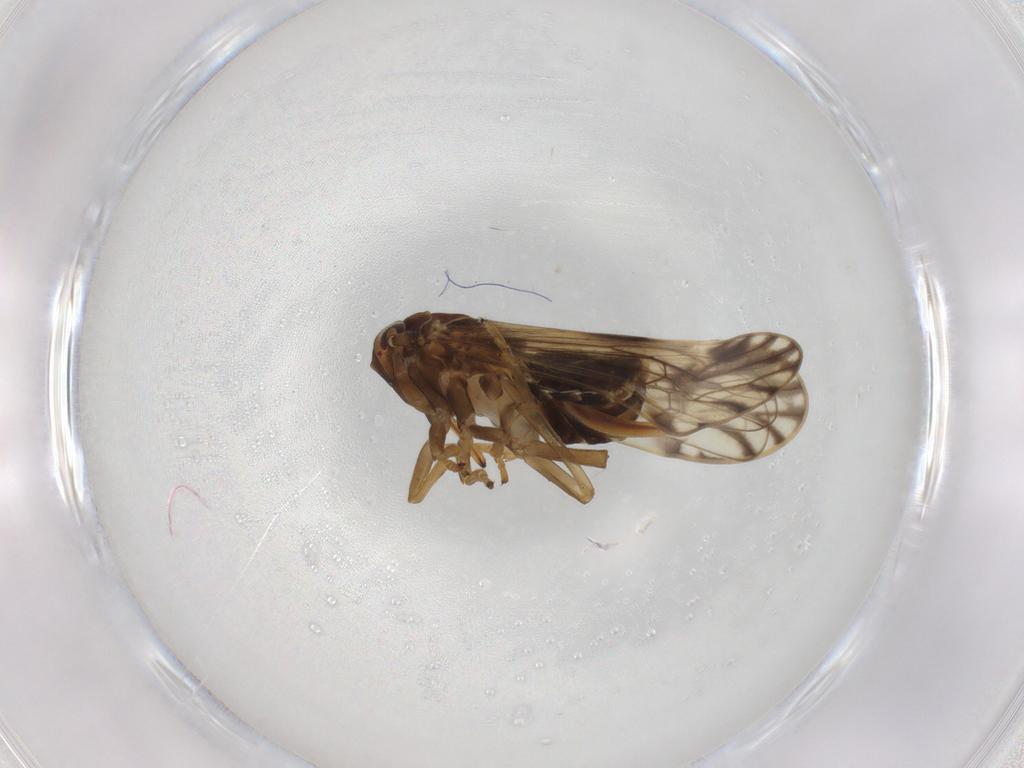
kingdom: Animalia
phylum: Arthropoda
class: Insecta
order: Hemiptera
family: Delphacidae
